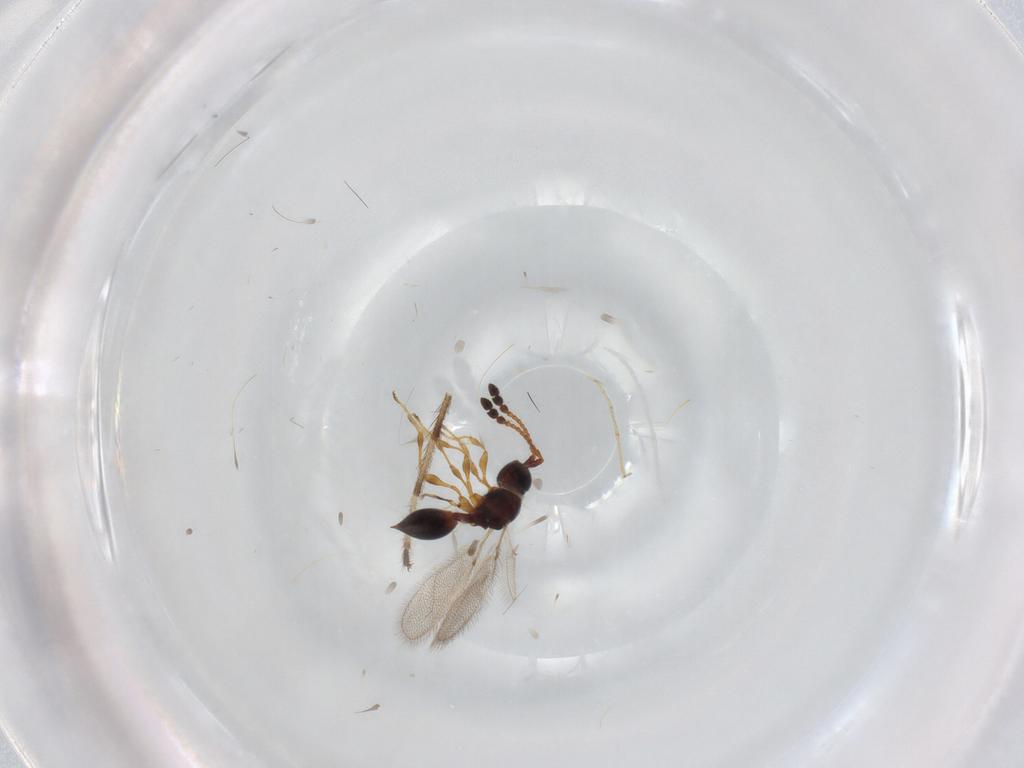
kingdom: Animalia
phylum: Arthropoda
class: Insecta
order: Hymenoptera
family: Diapriidae
